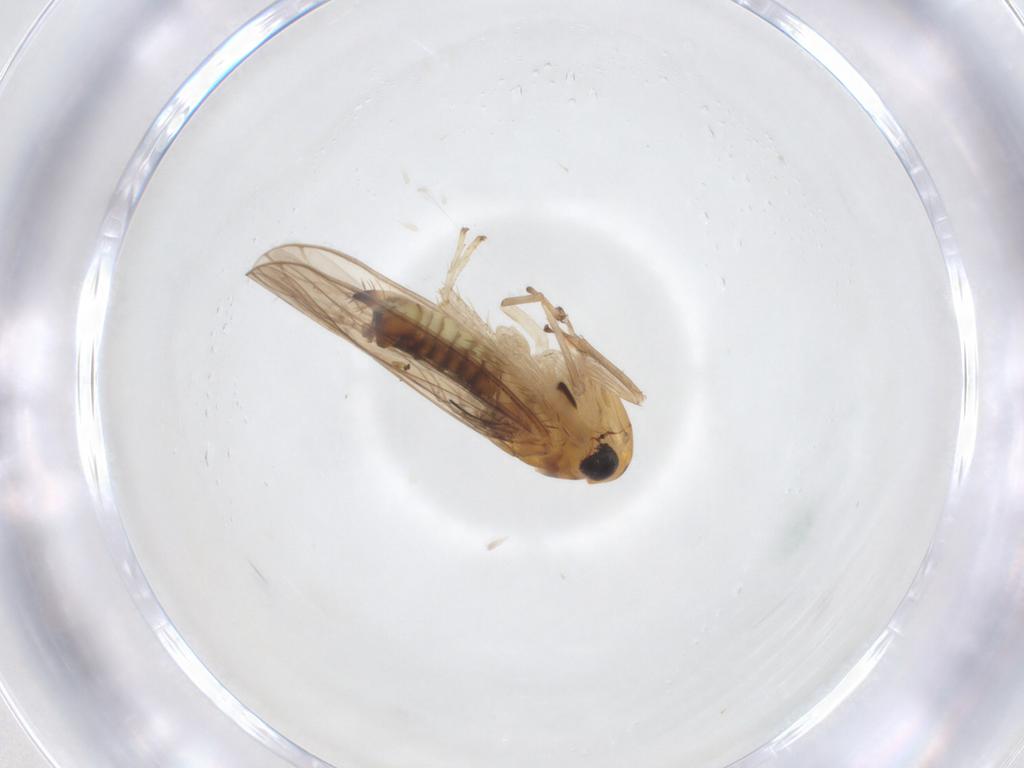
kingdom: Animalia
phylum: Arthropoda
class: Insecta
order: Hemiptera
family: Cicadellidae
